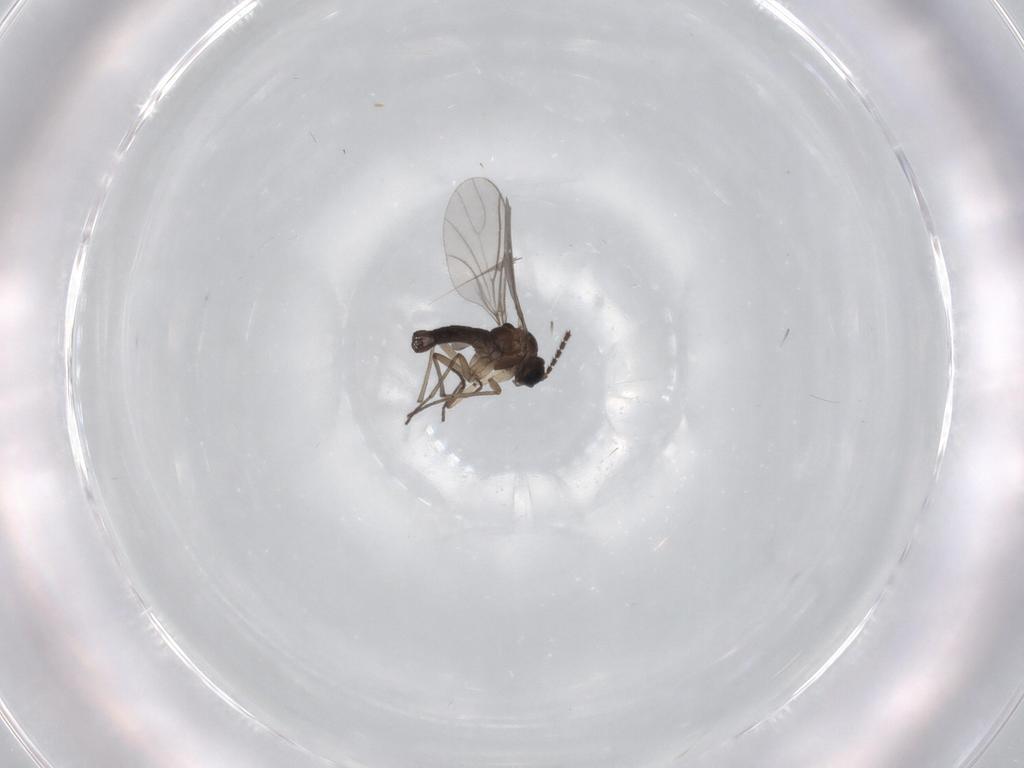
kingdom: Animalia
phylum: Arthropoda
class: Insecta
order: Diptera
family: Sciaridae
